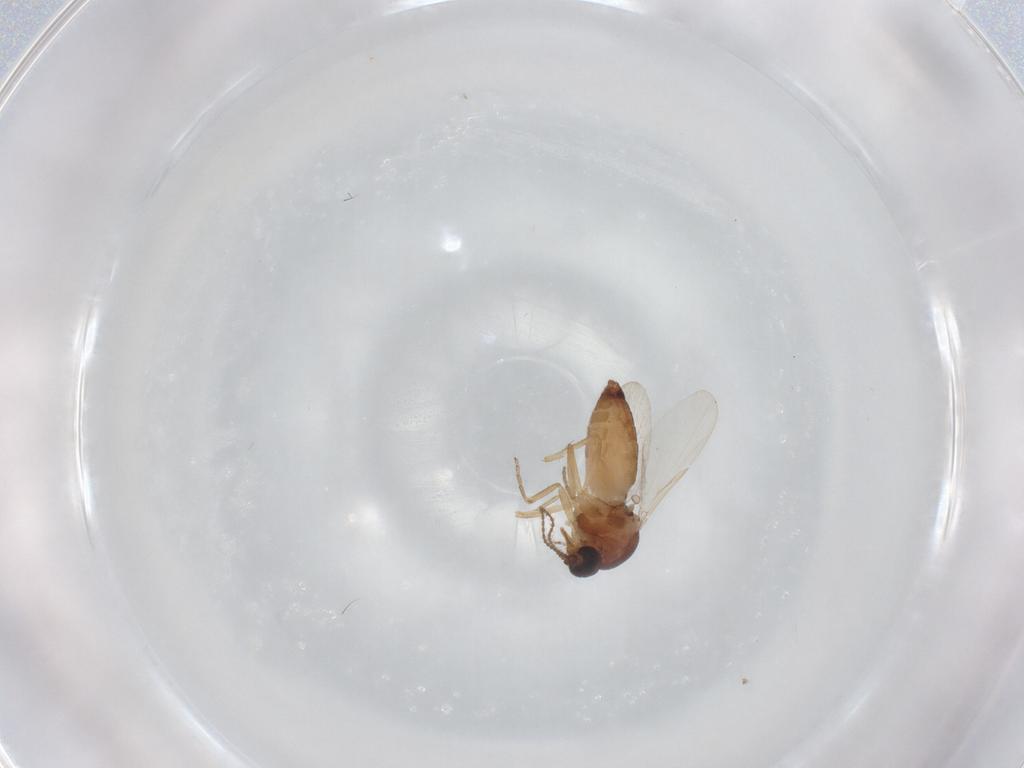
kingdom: Animalia
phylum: Arthropoda
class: Insecta
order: Diptera
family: Ceratopogonidae
